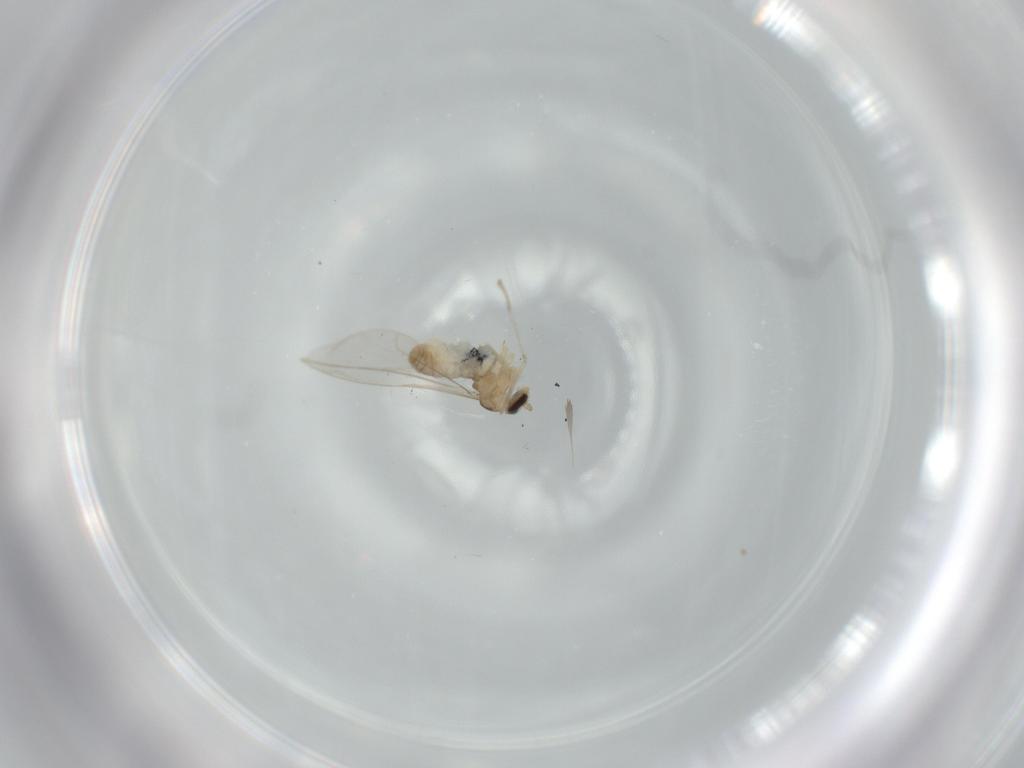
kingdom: Animalia
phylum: Arthropoda
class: Insecta
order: Diptera
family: Cecidomyiidae
